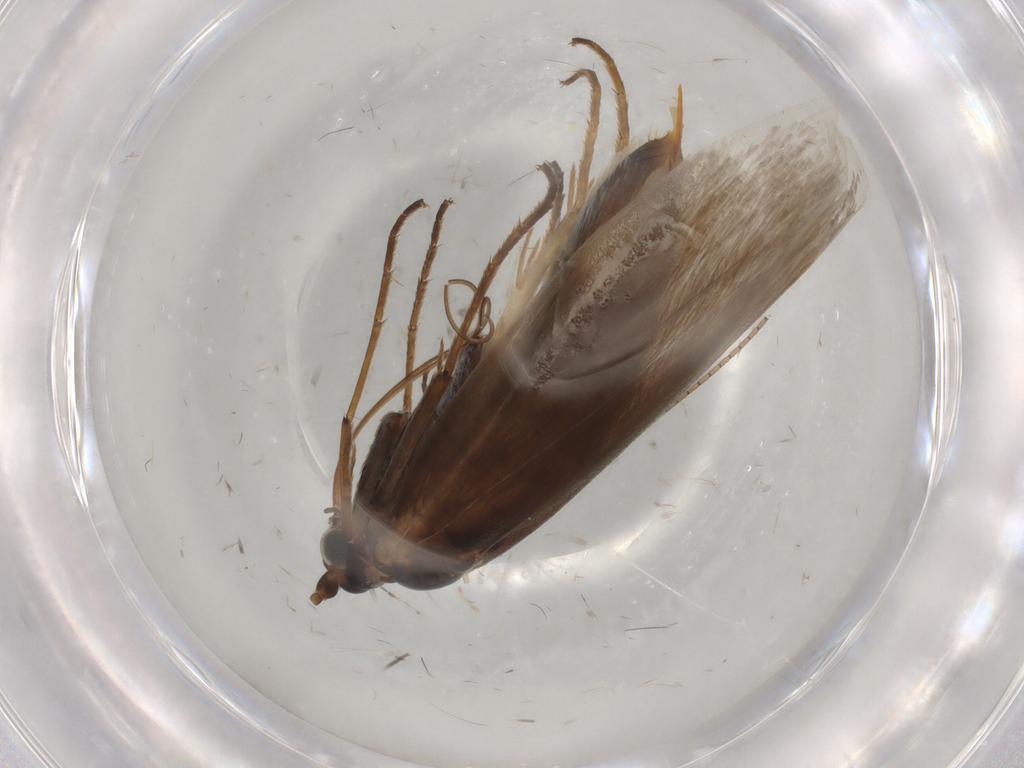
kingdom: Animalia
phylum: Arthropoda
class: Insecta
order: Lepidoptera
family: Adelidae
